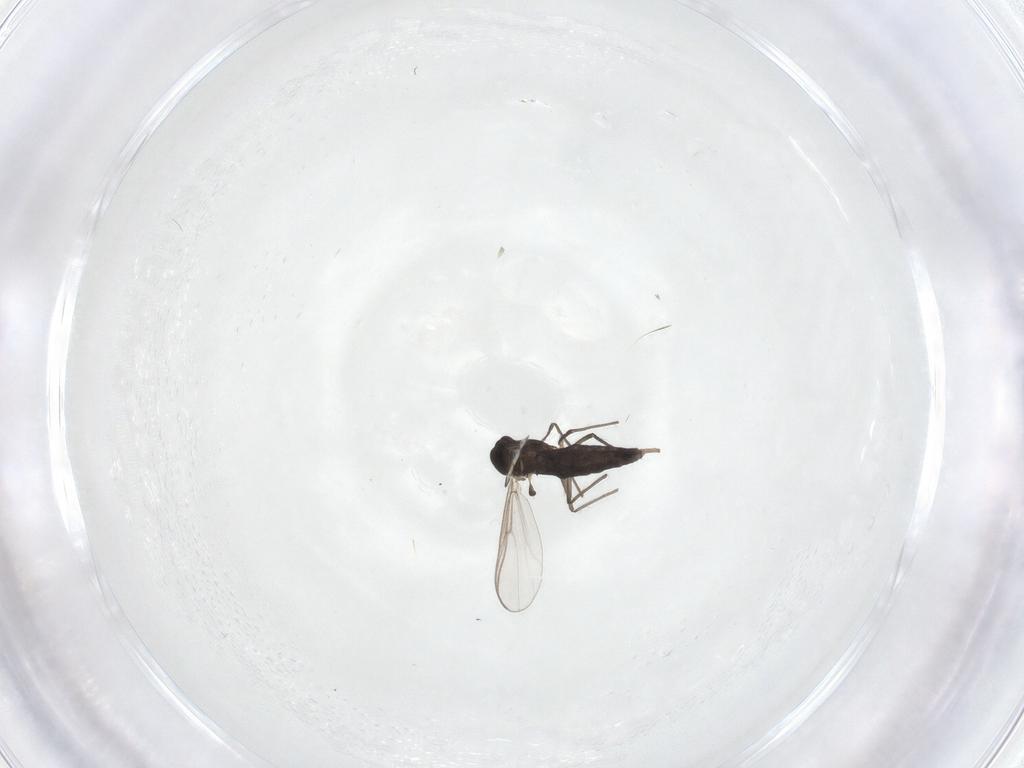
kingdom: Animalia
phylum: Arthropoda
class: Insecta
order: Diptera
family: Chironomidae
